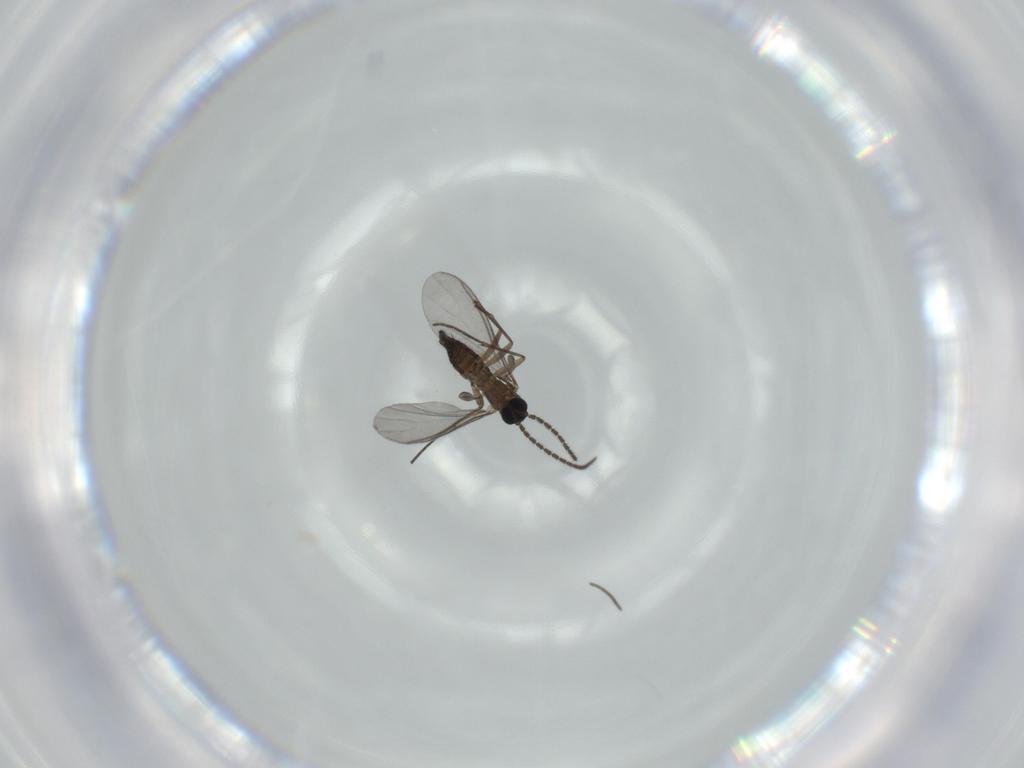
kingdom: Animalia
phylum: Arthropoda
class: Insecta
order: Diptera
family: Sciaridae
